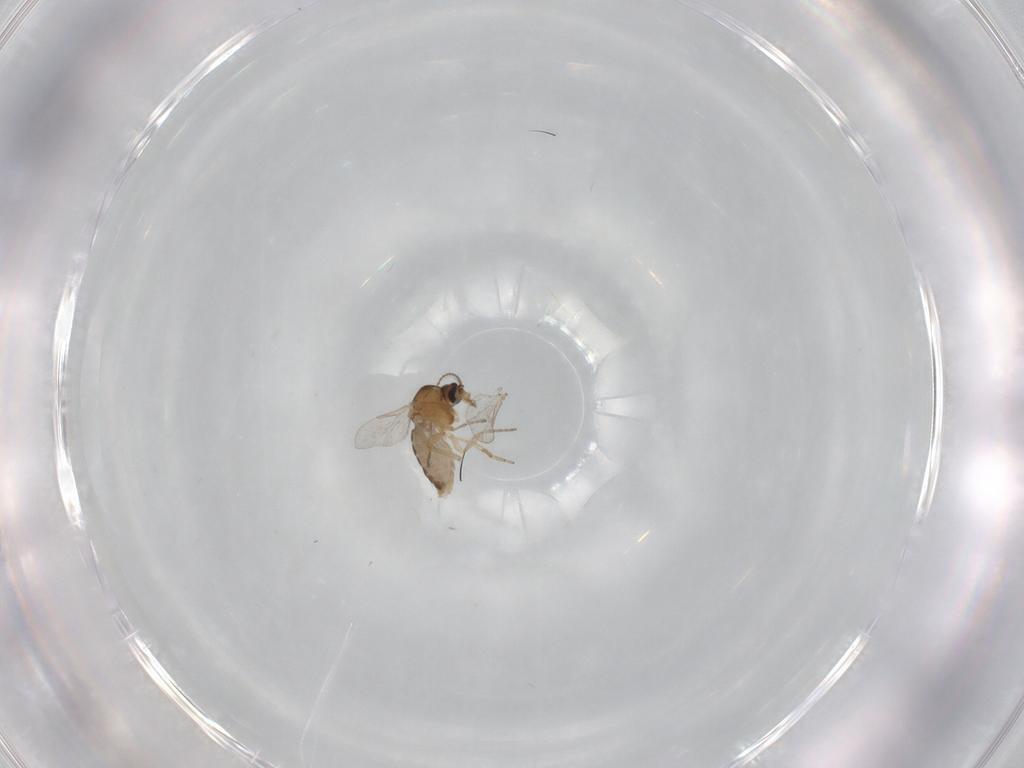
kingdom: Animalia
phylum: Arthropoda
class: Insecta
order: Diptera
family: Ceratopogonidae
